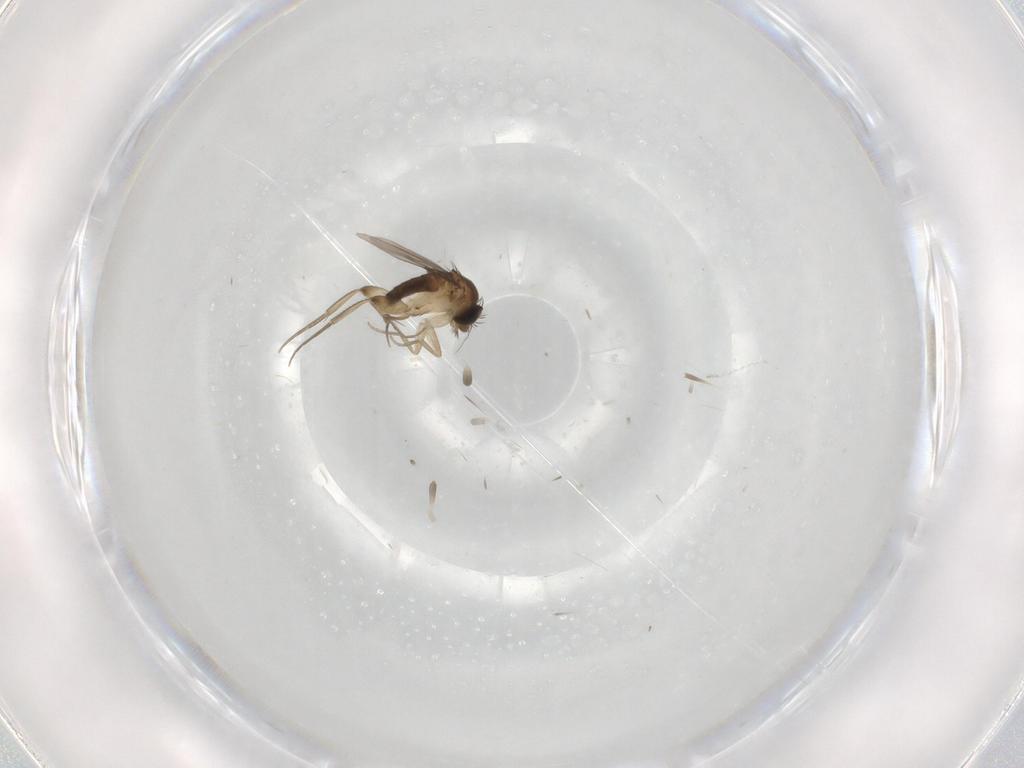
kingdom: Animalia
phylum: Arthropoda
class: Insecta
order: Diptera
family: Phoridae
